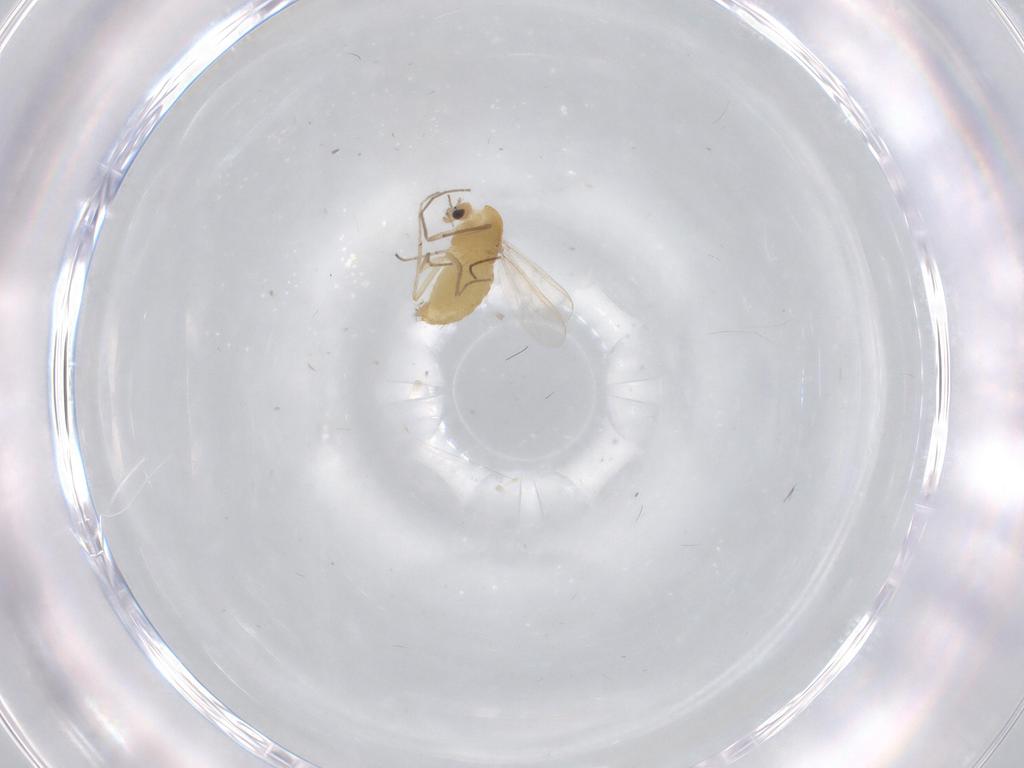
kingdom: Animalia
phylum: Arthropoda
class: Insecta
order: Diptera
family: Chironomidae
